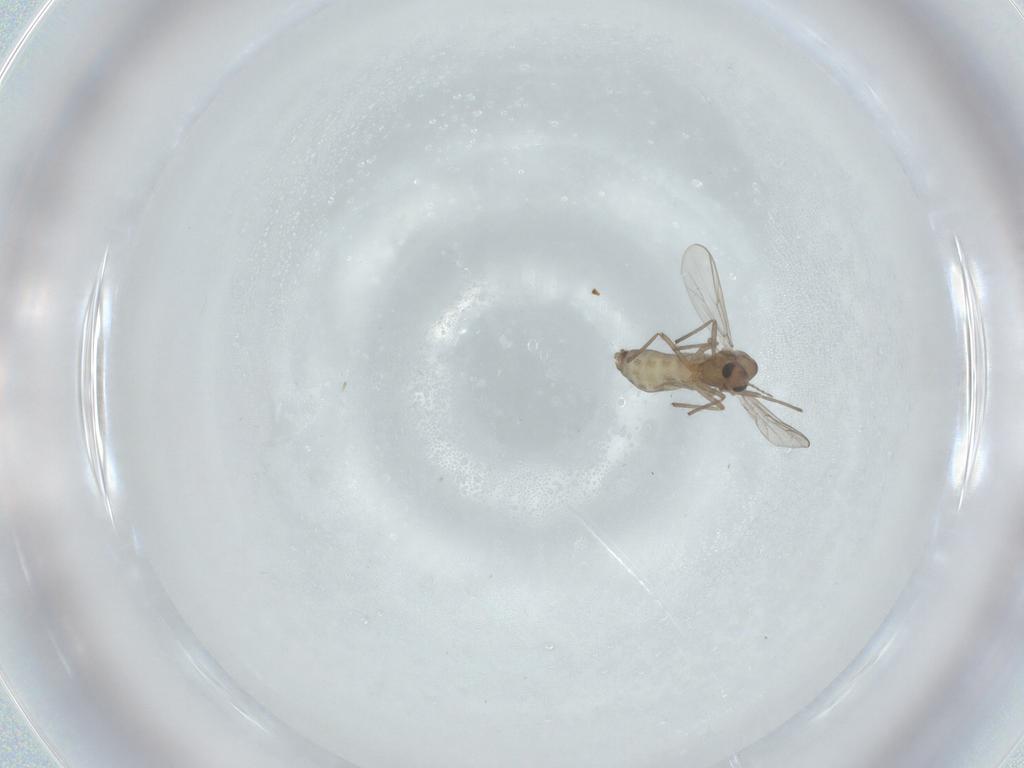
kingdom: Animalia
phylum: Arthropoda
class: Insecta
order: Diptera
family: Chironomidae
